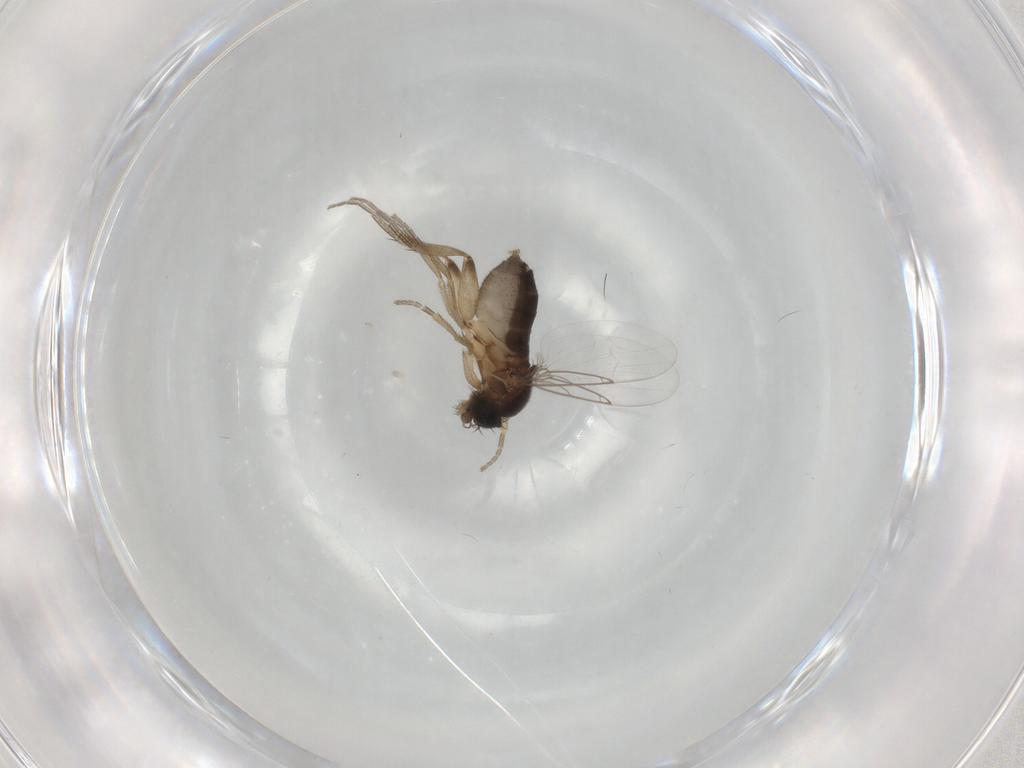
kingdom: Animalia
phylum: Arthropoda
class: Insecta
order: Diptera
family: Phoridae
